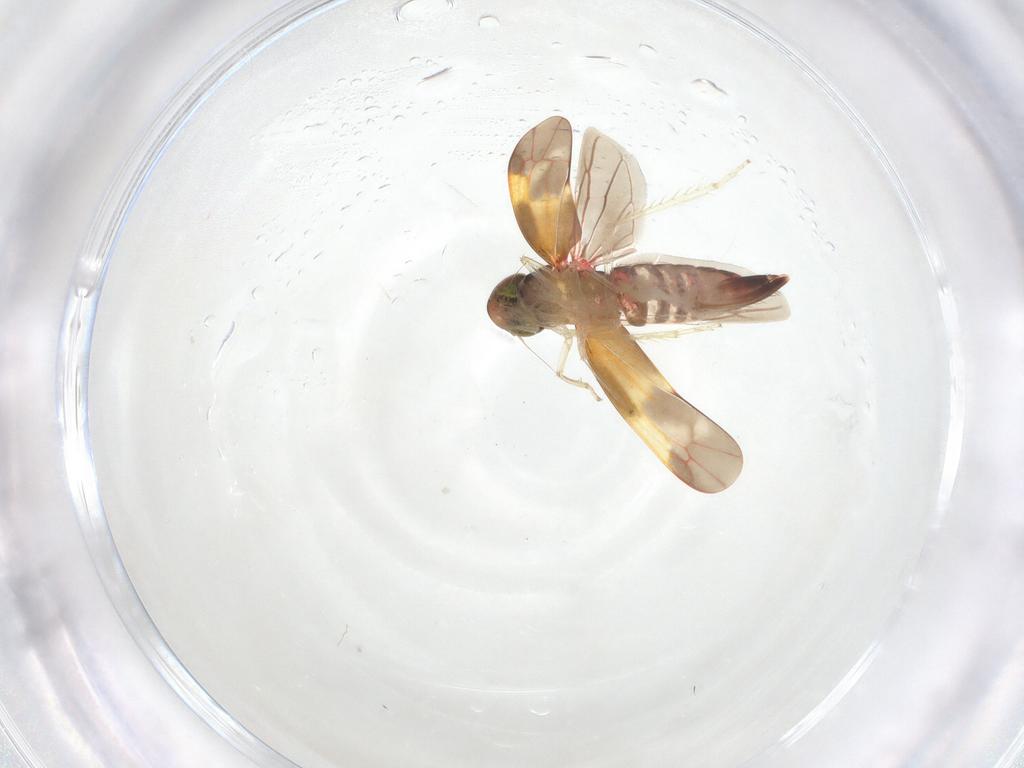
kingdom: Animalia
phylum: Arthropoda
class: Insecta
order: Hemiptera
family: Cicadellidae
